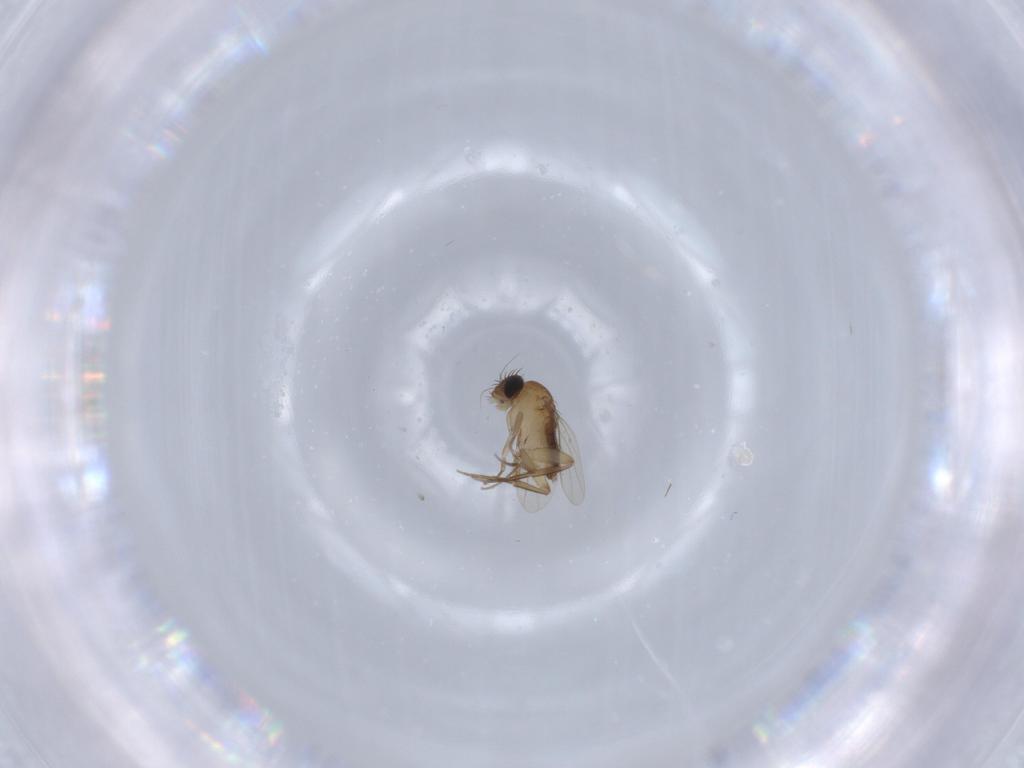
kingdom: Animalia
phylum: Arthropoda
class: Insecta
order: Diptera
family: Phoridae
